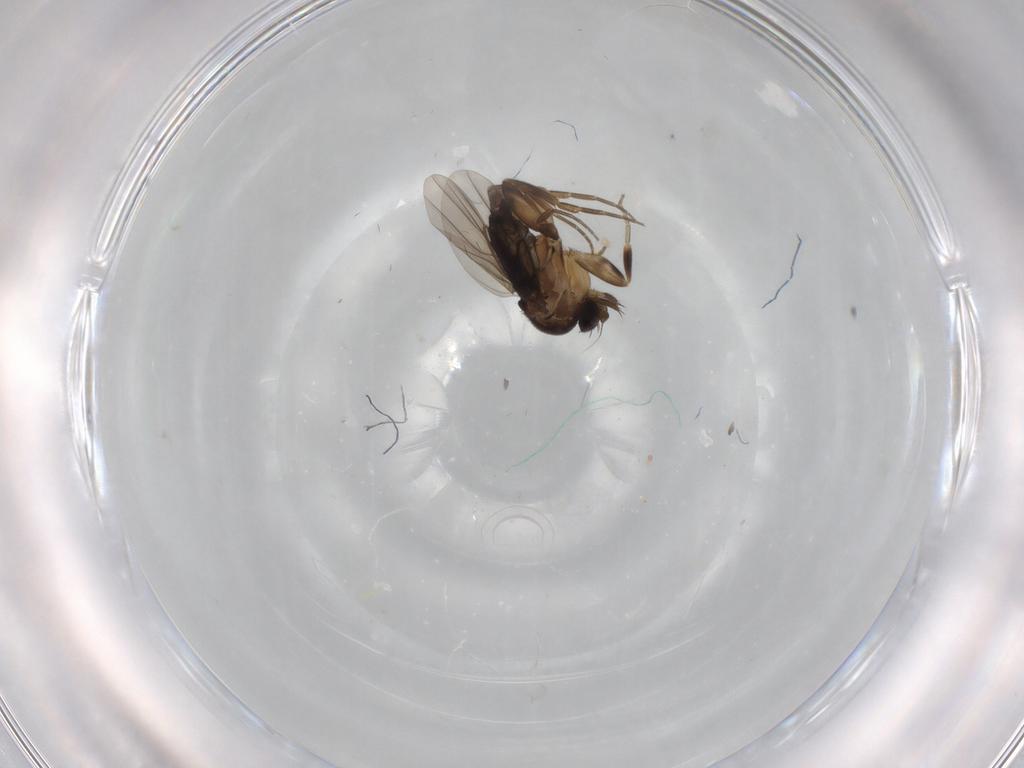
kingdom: Animalia
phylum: Arthropoda
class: Insecta
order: Diptera
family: Phoridae
